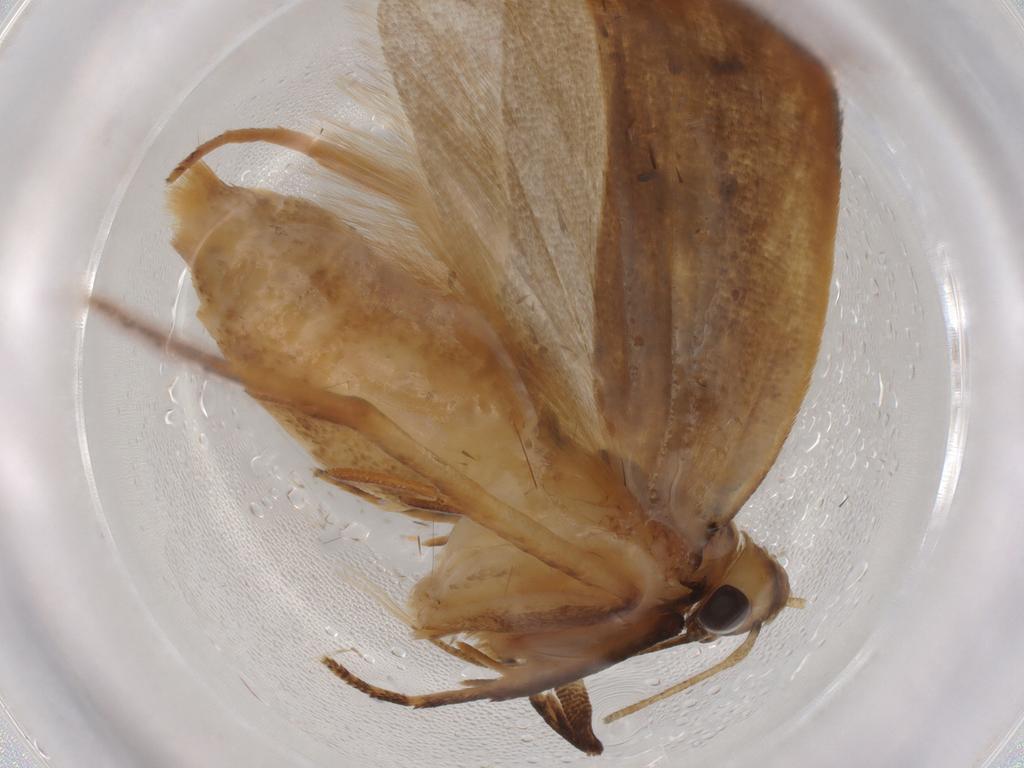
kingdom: Animalia
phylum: Arthropoda
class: Insecta
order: Lepidoptera
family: Gelechiidae
